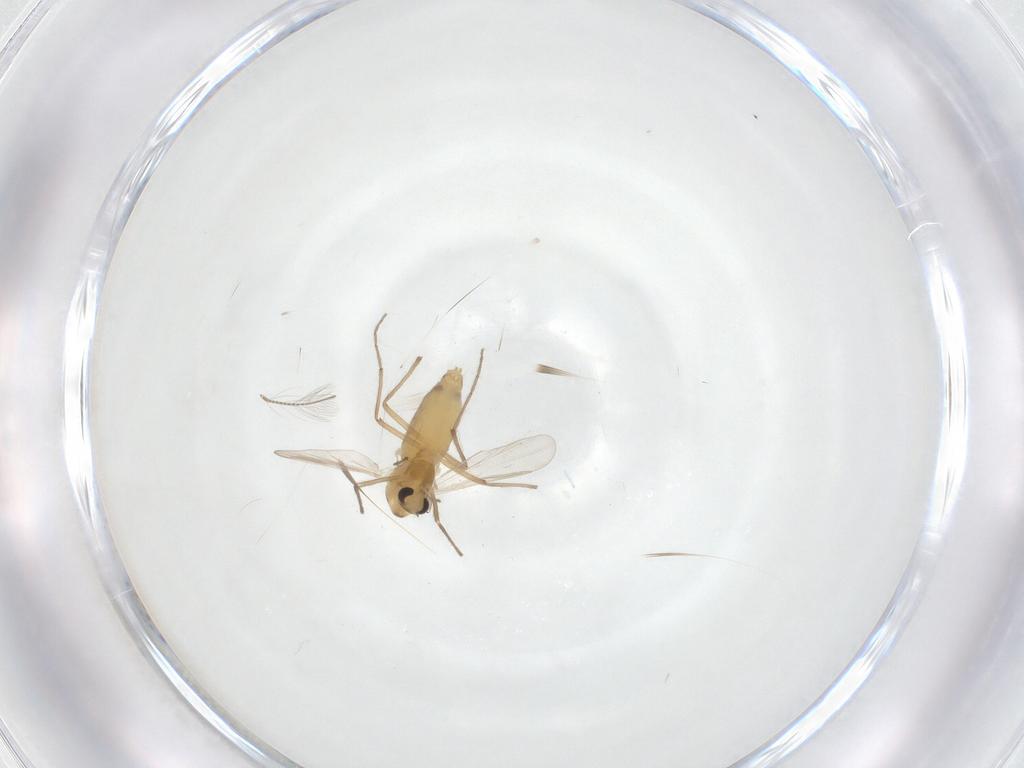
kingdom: Animalia
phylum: Arthropoda
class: Insecta
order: Diptera
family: Chironomidae
